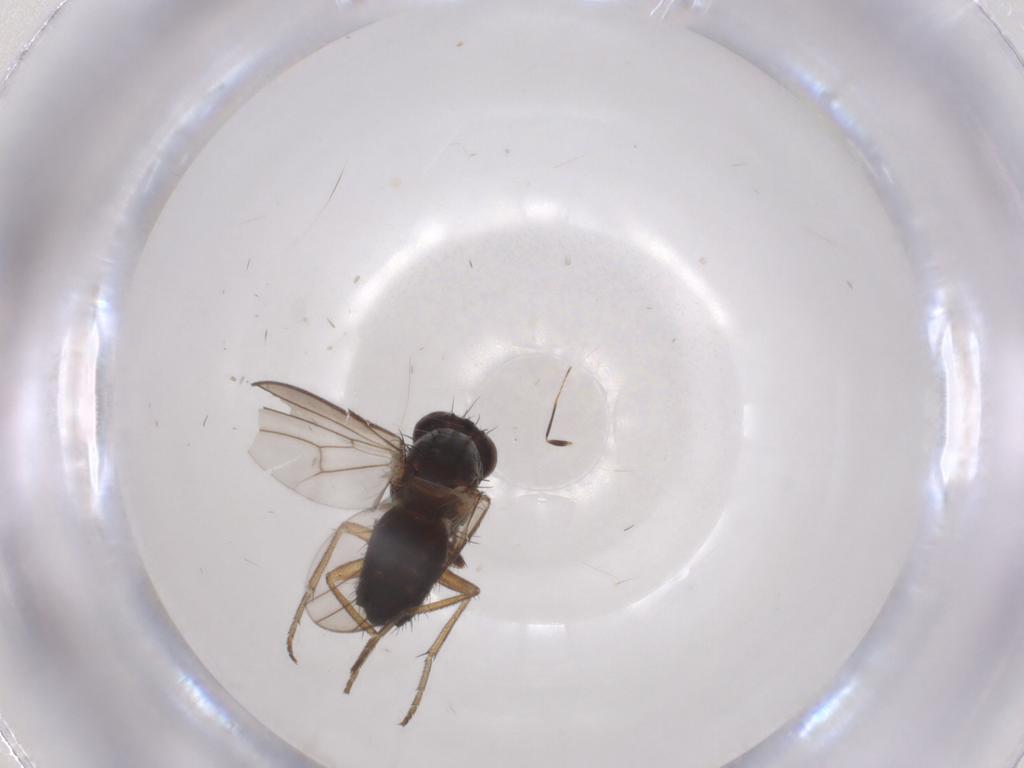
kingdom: Animalia
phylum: Arthropoda
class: Insecta
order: Diptera
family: Heleomyzidae
